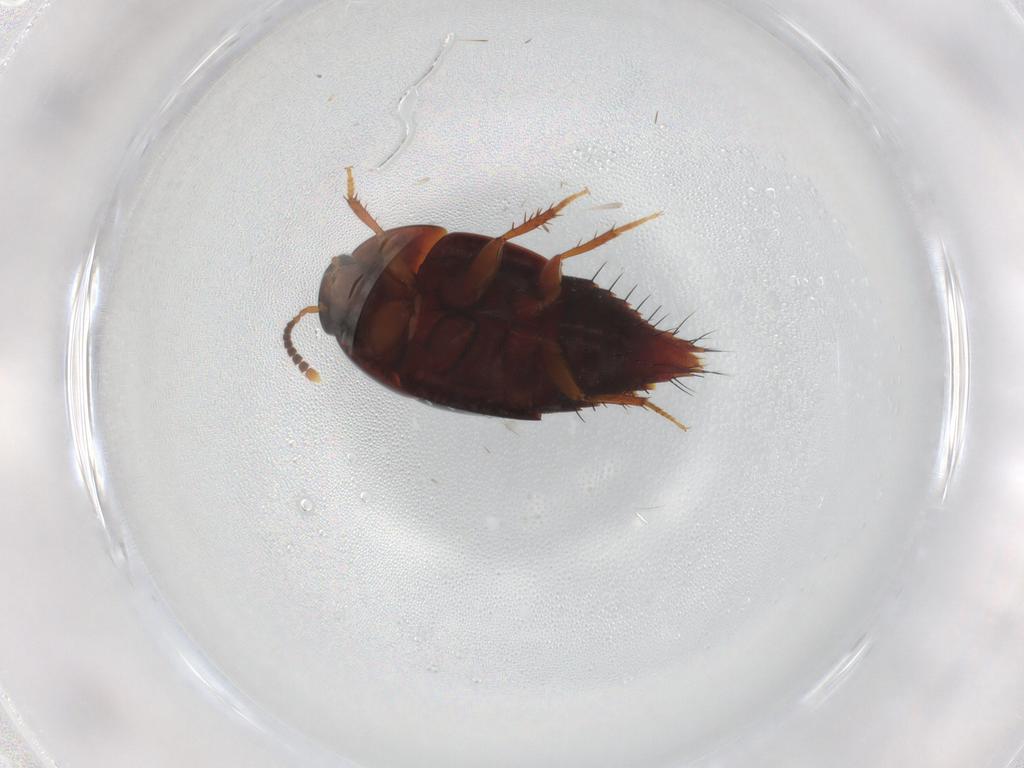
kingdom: Animalia
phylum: Arthropoda
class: Insecta
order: Coleoptera
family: Staphylinidae
